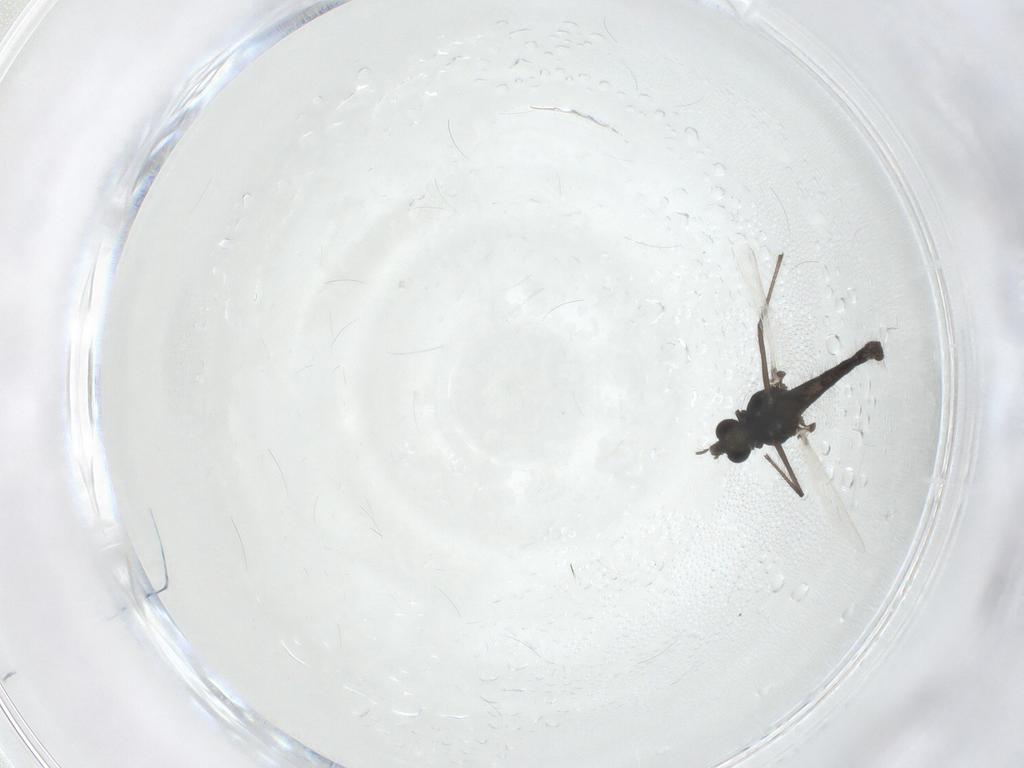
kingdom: Animalia
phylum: Arthropoda
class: Insecta
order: Diptera
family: Chironomidae
